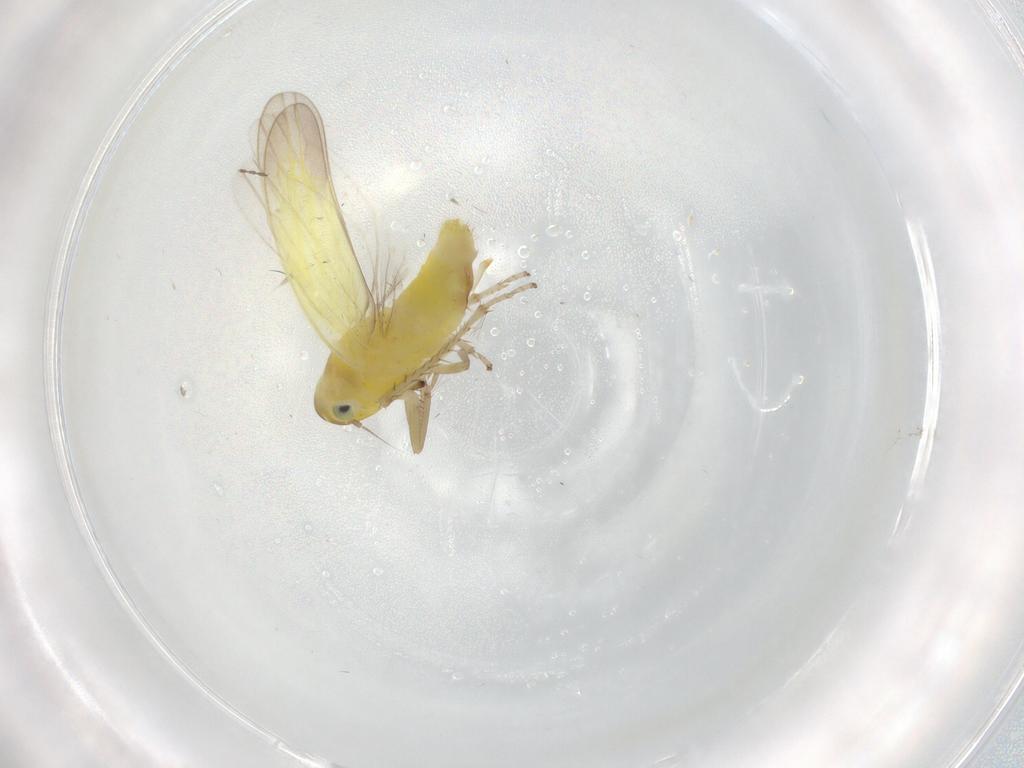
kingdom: Animalia
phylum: Arthropoda
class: Insecta
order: Hemiptera
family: Cicadellidae
